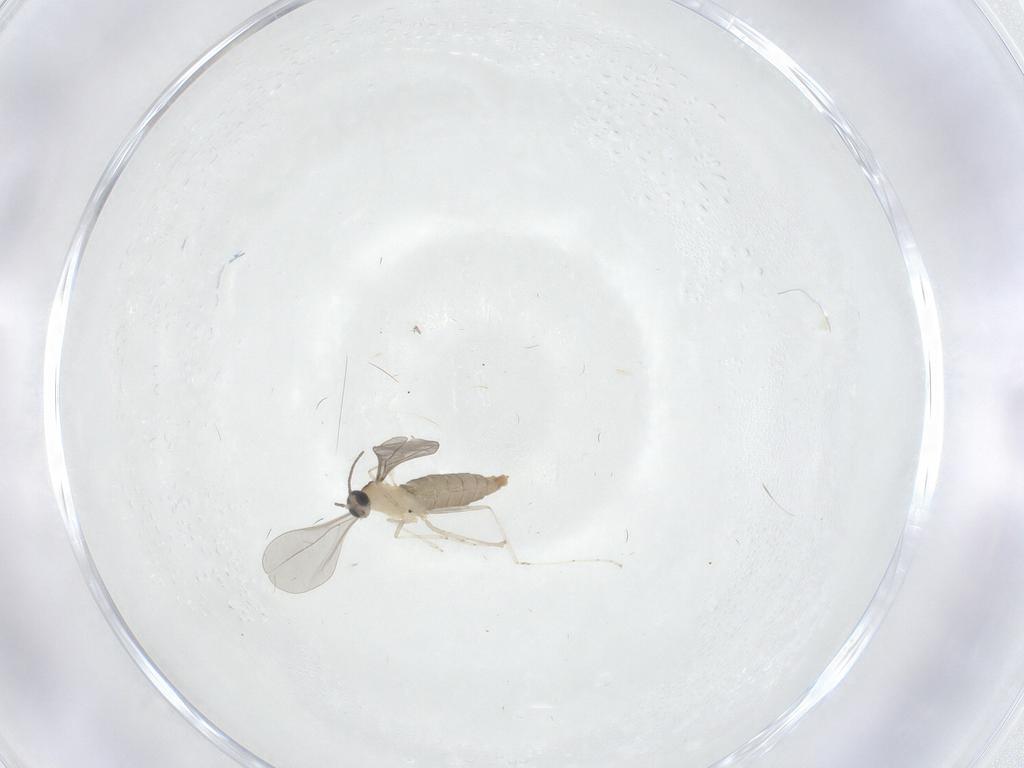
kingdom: Animalia
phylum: Arthropoda
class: Insecta
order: Diptera
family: Cecidomyiidae
